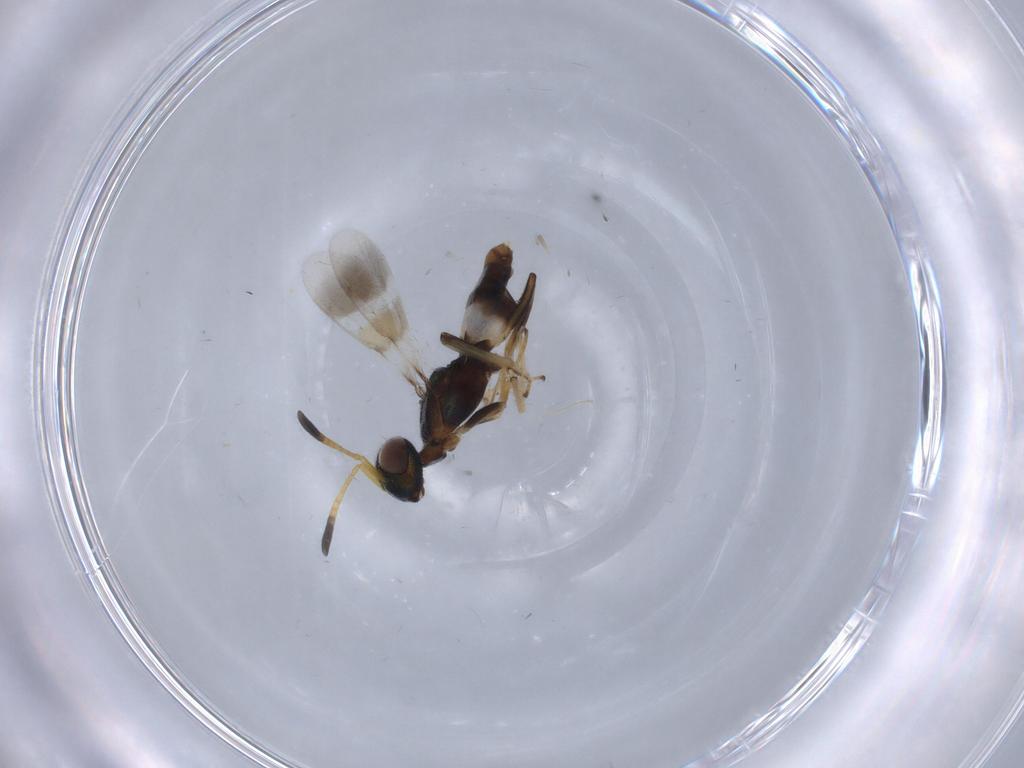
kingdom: Animalia
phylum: Arthropoda
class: Insecta
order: Hymenoptera
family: Eupelmidae
